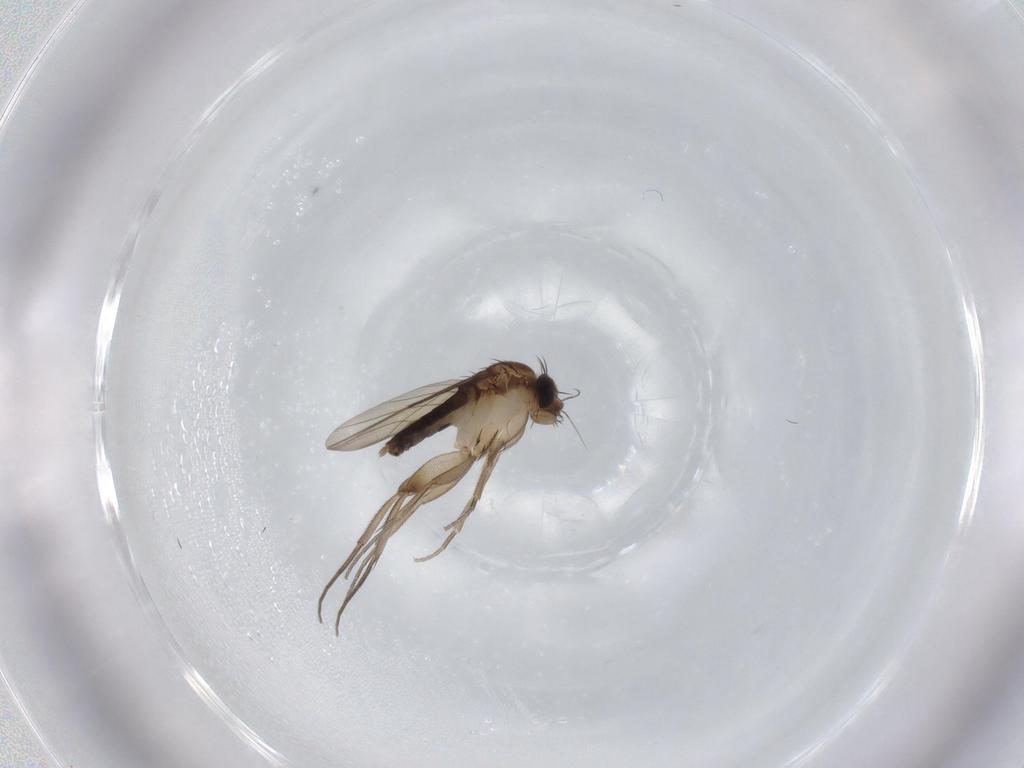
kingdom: Animalia
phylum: Arthropoda
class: Insecta
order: Diptera
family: Phoridae
